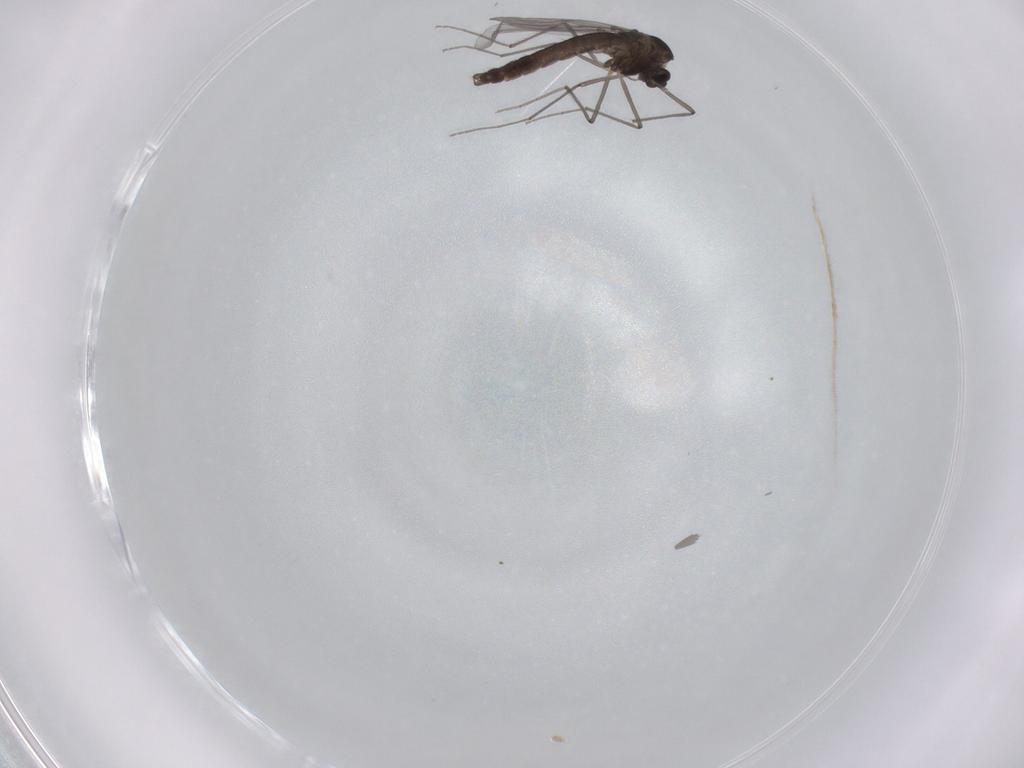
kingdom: Animalia
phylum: Arthropoda
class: Insecta
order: Diptera
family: Chironomidae
